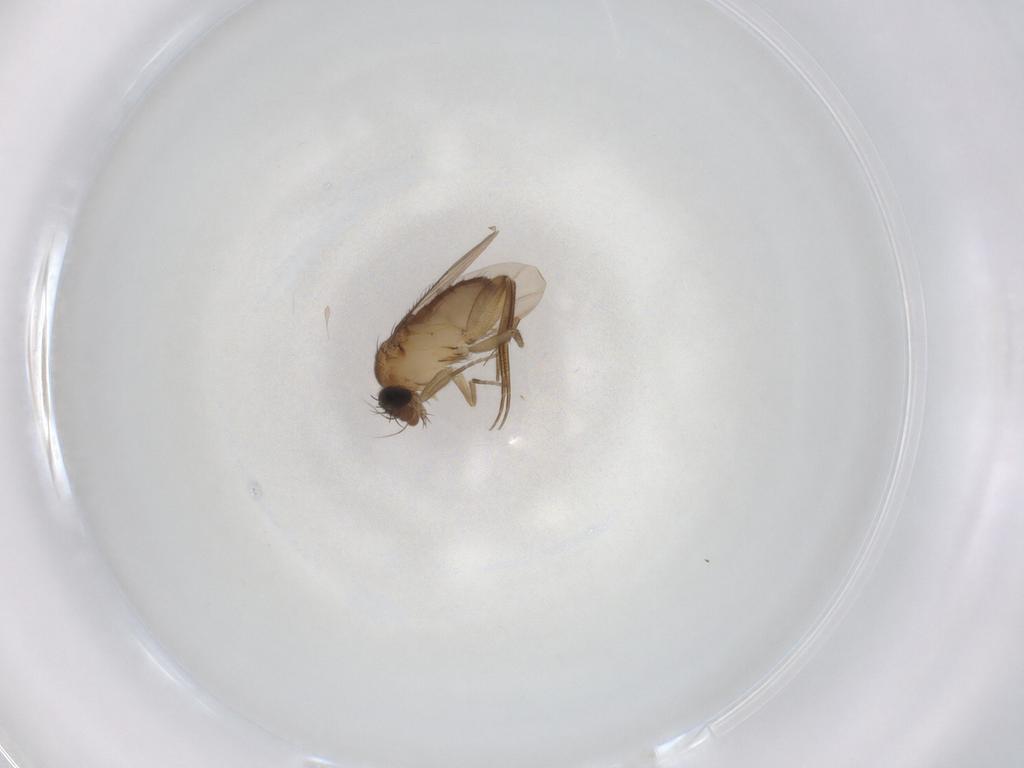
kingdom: Animalia
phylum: Arthropoda
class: Insecta
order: Diptera
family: Phoridae
